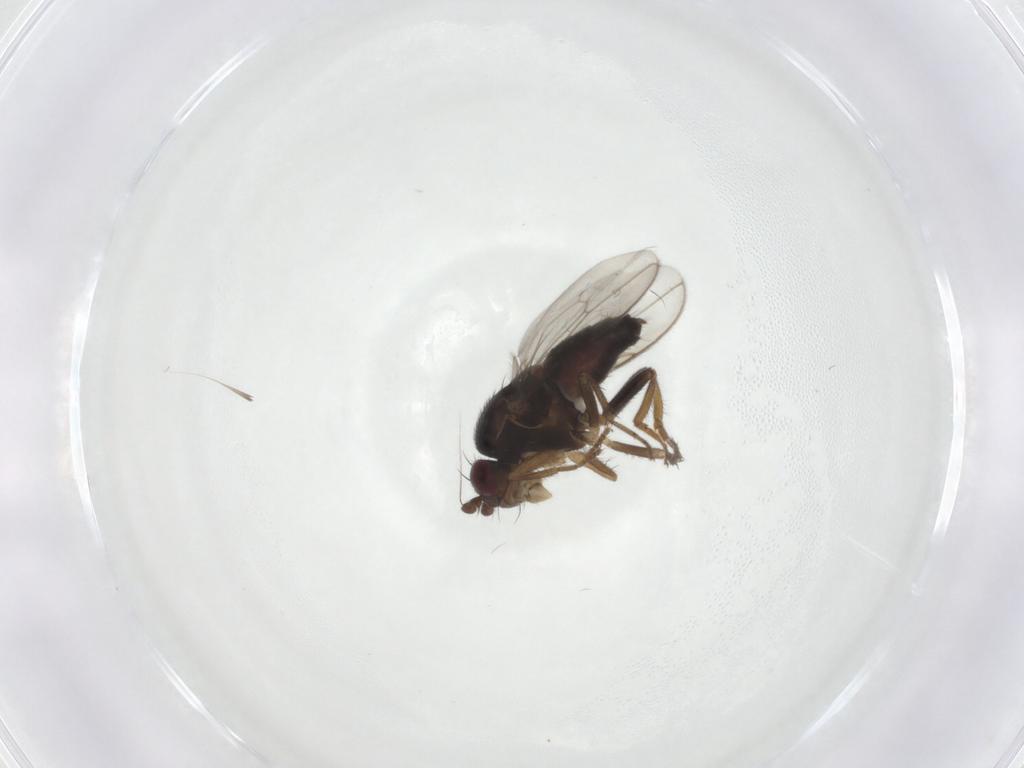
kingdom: Animalia
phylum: Arthropoda
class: Insecta
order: Diptera
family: Sphaeroceridae
